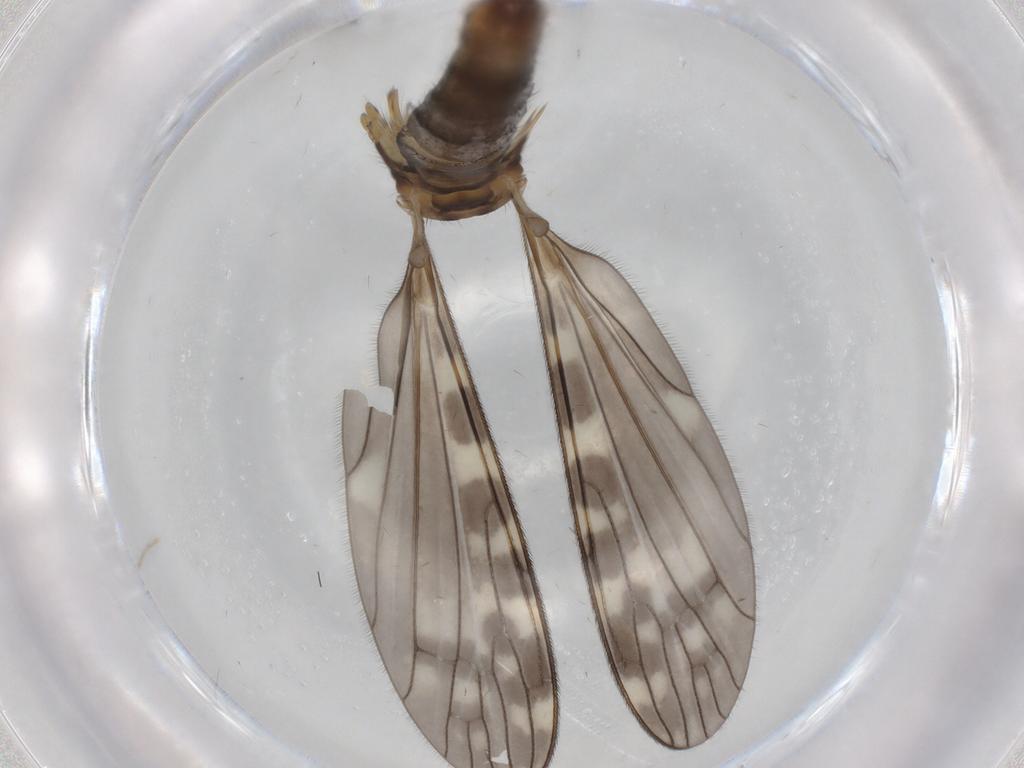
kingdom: Animalia
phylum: Arthropoda
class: Insecta
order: Diptera
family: Limoniidae
